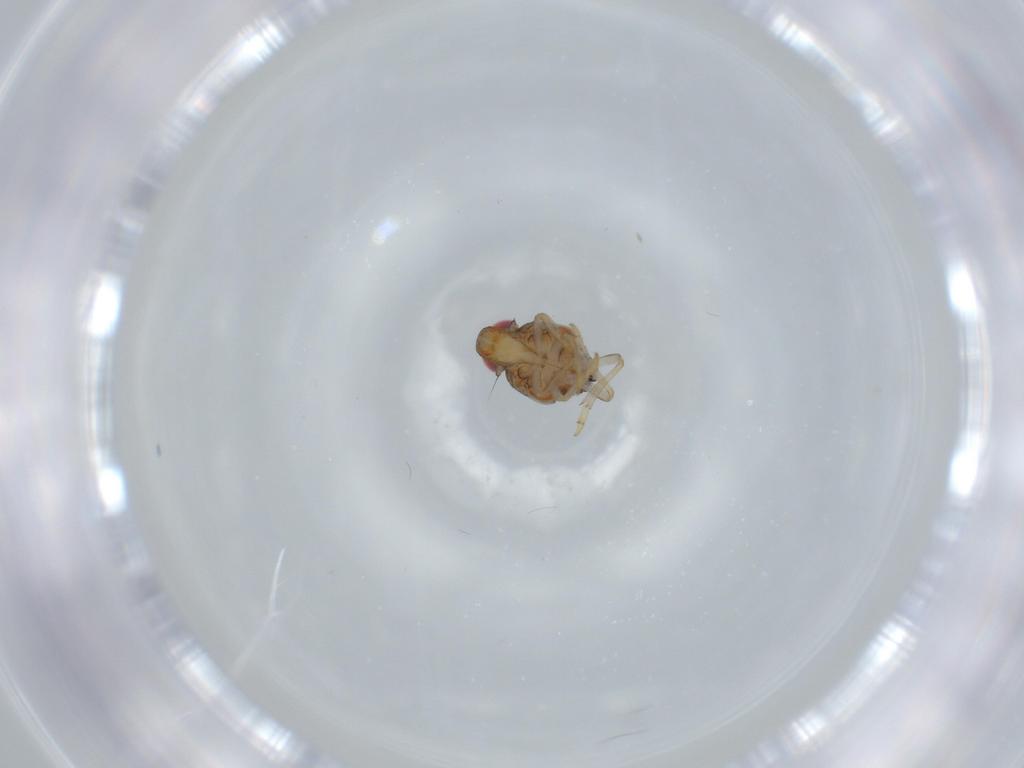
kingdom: Animalia
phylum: Arthropoda
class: Insecta
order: Hemiptera
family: Issidae
